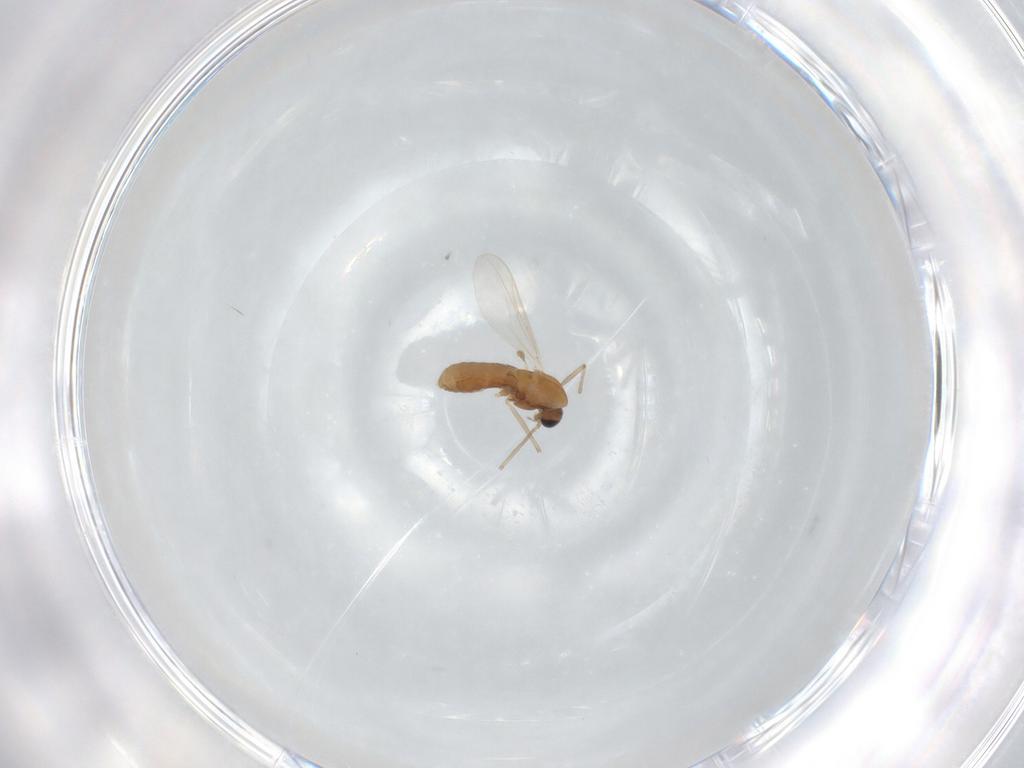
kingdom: Animalia
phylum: Arthropoda
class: Insecta
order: Diptera
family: Chironomidae
